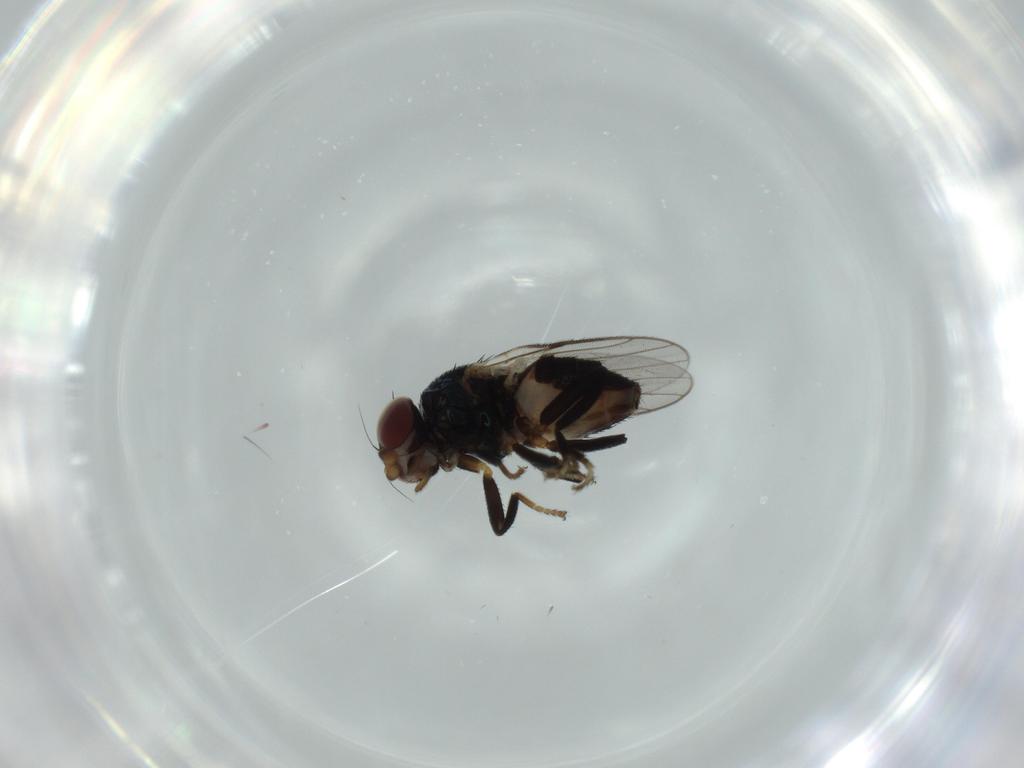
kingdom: Animalia
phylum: Arthropoda
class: Insecta
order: Diptera
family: Chloropidae
